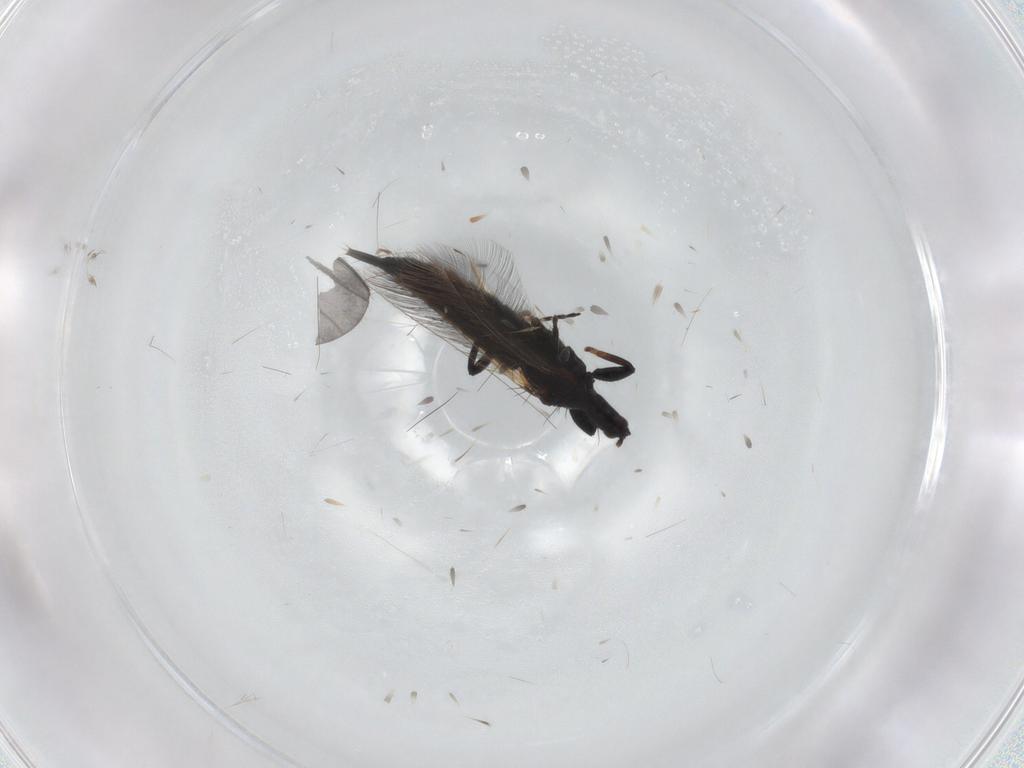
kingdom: Animalia
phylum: Arthropoda
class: Insecta
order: Thysanoptera
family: Phlaeothripidae
